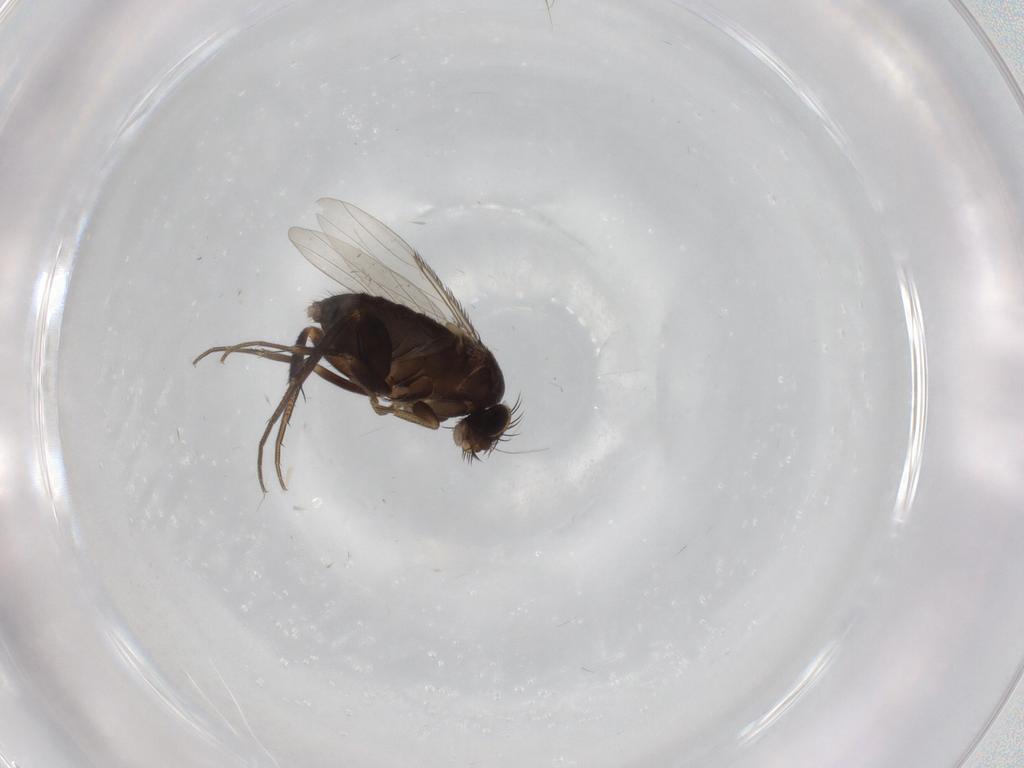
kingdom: Animalia
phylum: Arthropoda
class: Insecta
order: Diptera
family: Phoridae
